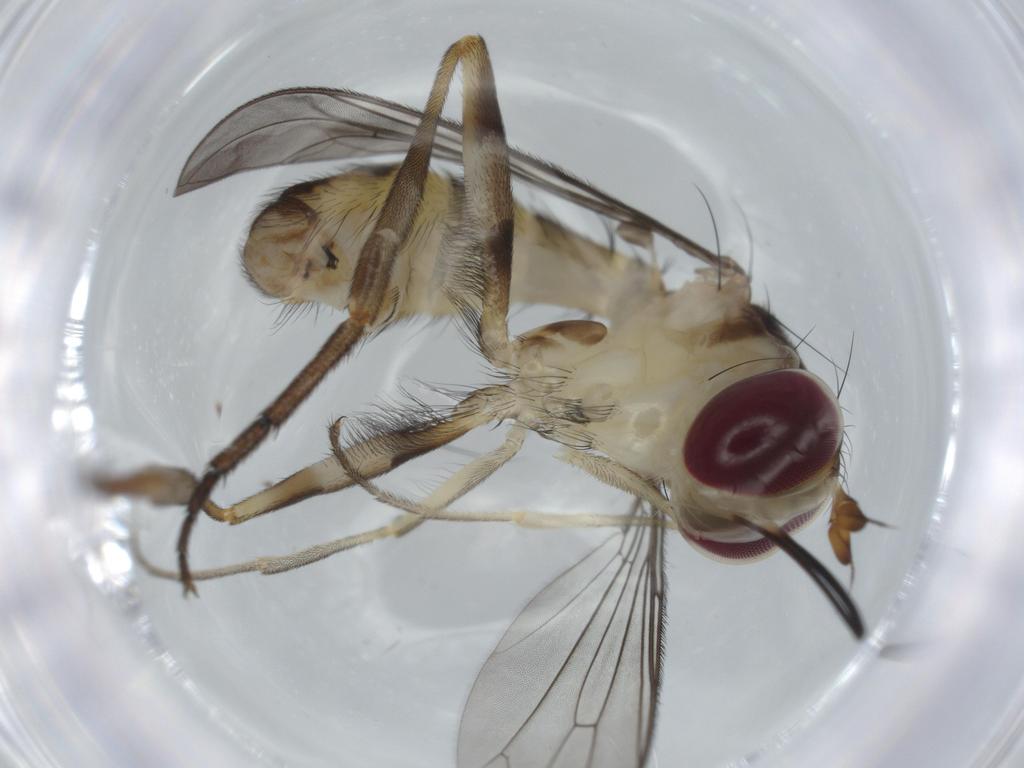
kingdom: Animalia
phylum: Arthropoda
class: Insecta
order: Diptera
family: Conopidae
